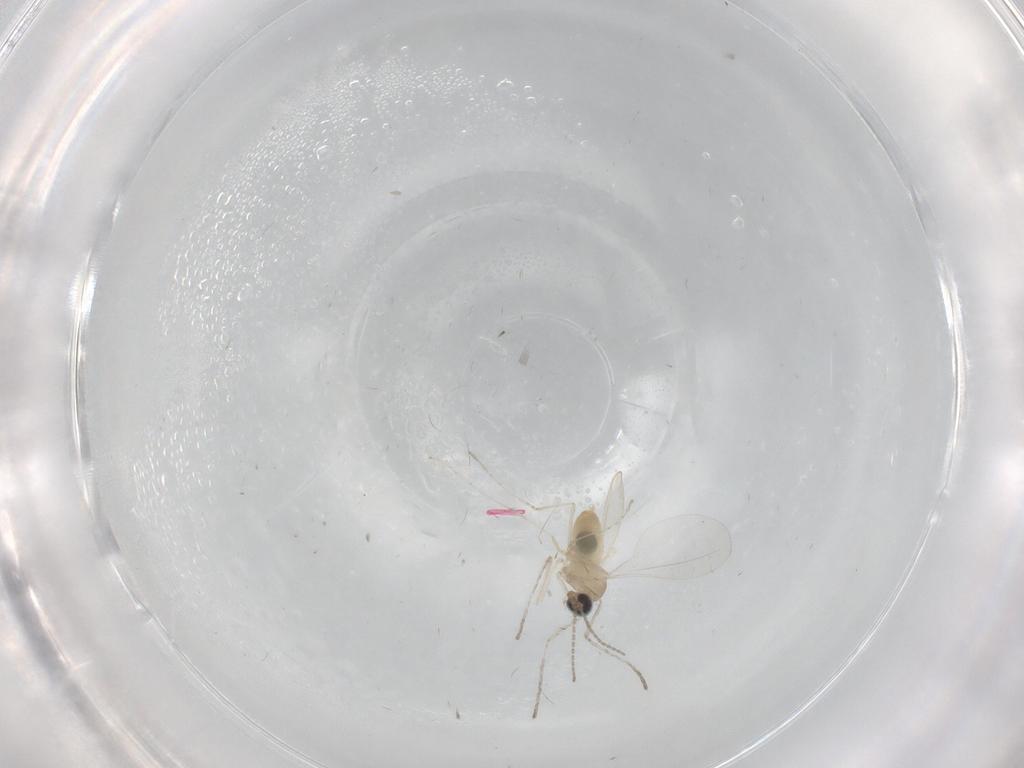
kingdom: Animalia
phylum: Arthropoda
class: Insecta
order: Diptera
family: Cecidomyiidae
